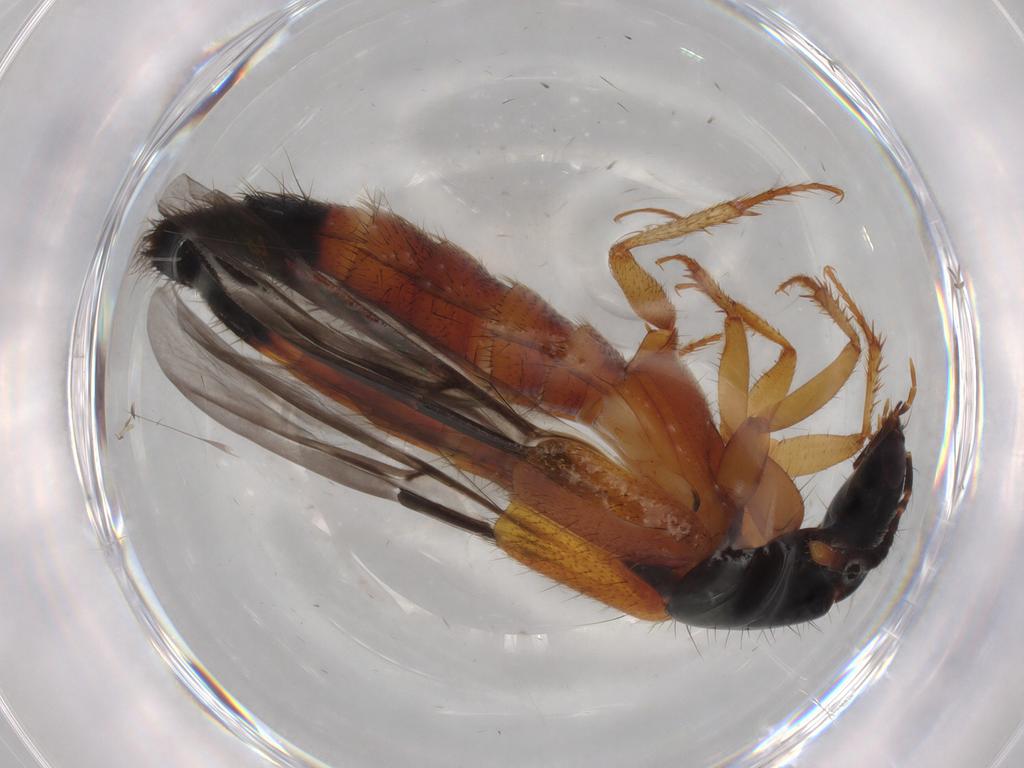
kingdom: Animalia
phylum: Arthropoda
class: Insecta
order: Coleoptera
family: Staphylinidae
